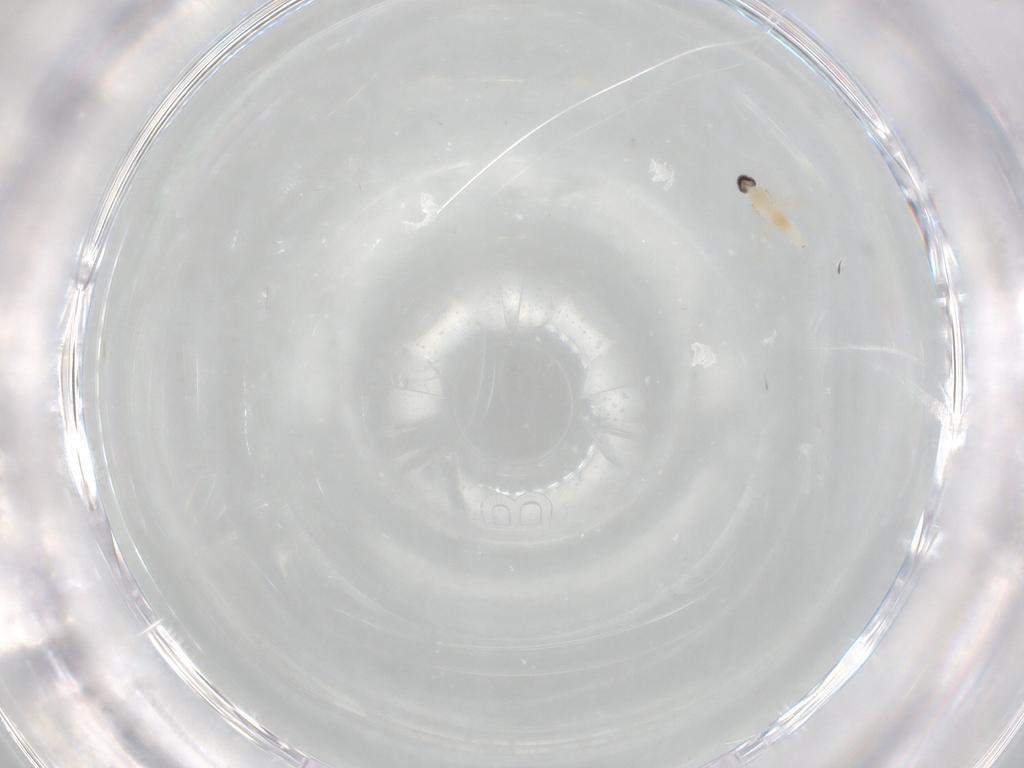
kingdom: Animalia
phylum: Arthropoda
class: Insecta
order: Diptera
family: Cecidomyiidae
